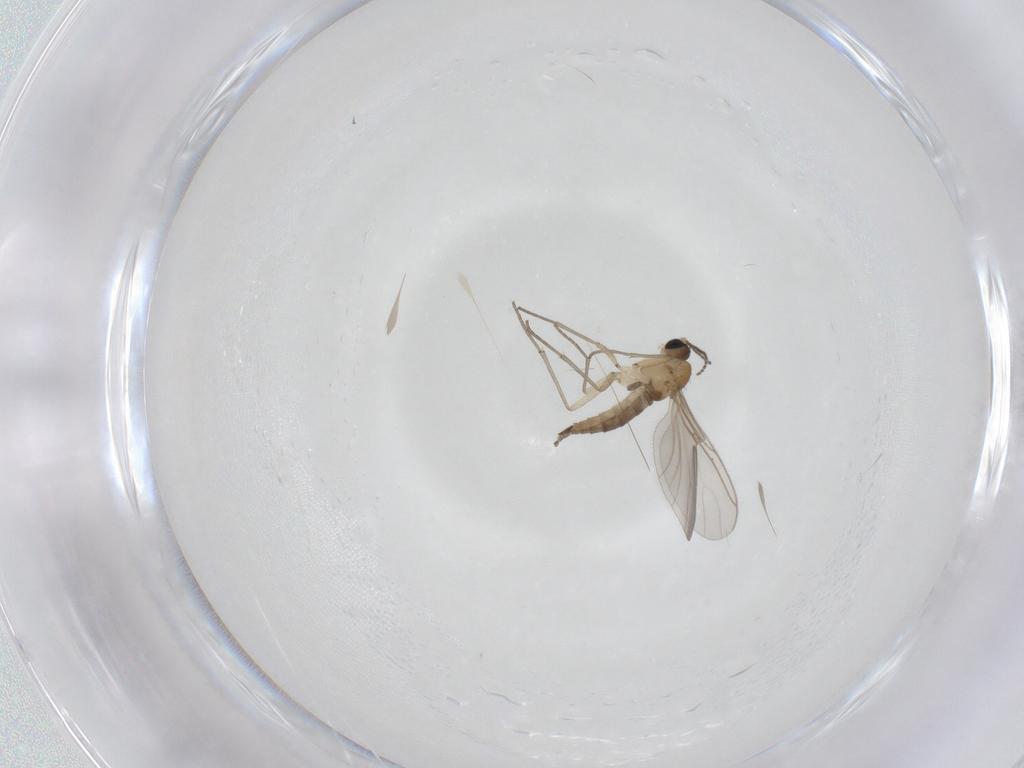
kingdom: Animalia
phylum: Arthropoda
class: Insecta
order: Diptera
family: Sciaridae
